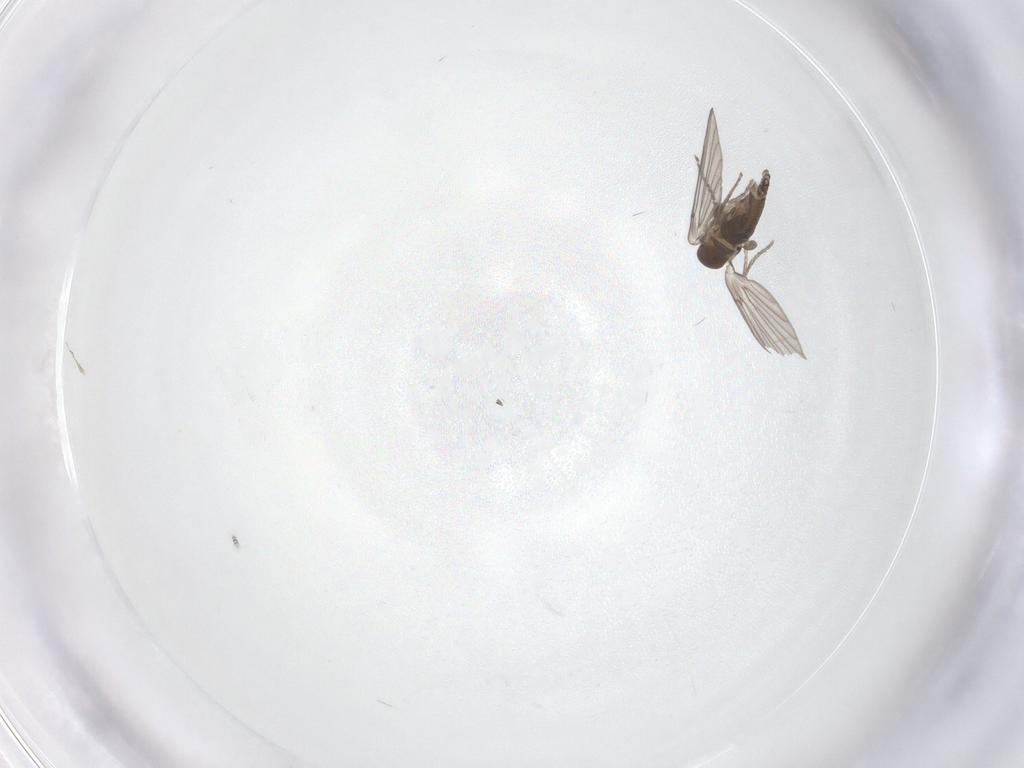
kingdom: Animalia
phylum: Arthropoda
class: Insecta
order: Diptera
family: Psychodidae
